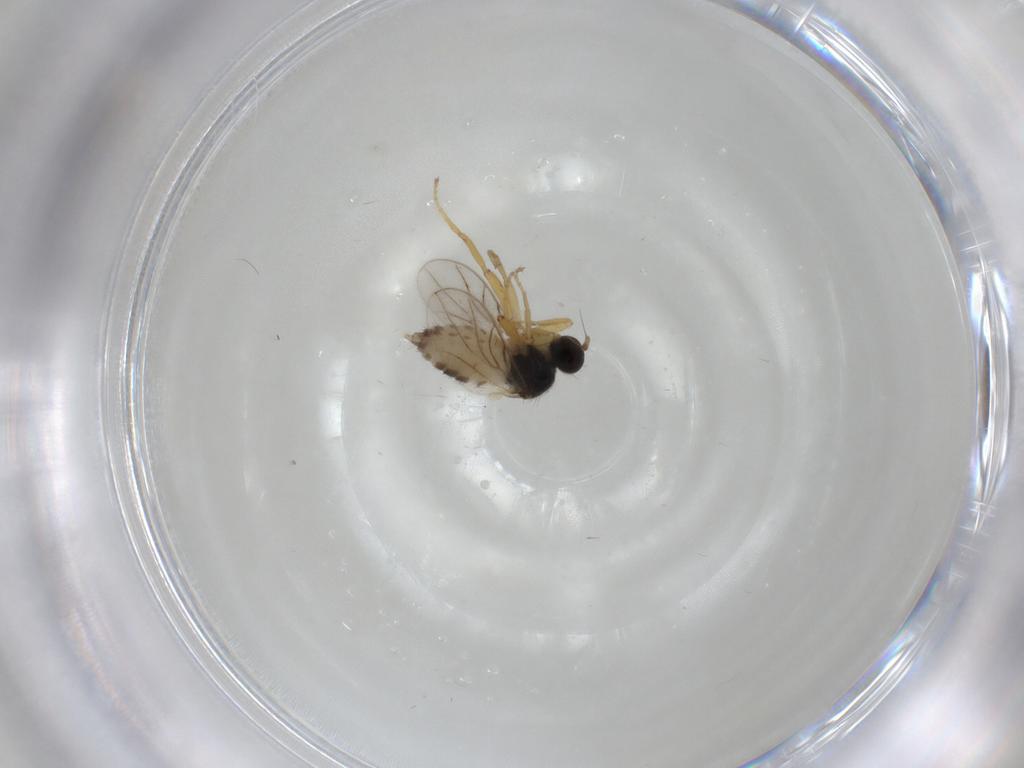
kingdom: Animalia
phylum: Arthropoda
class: Insecta
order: Diptera
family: Hybotidae
